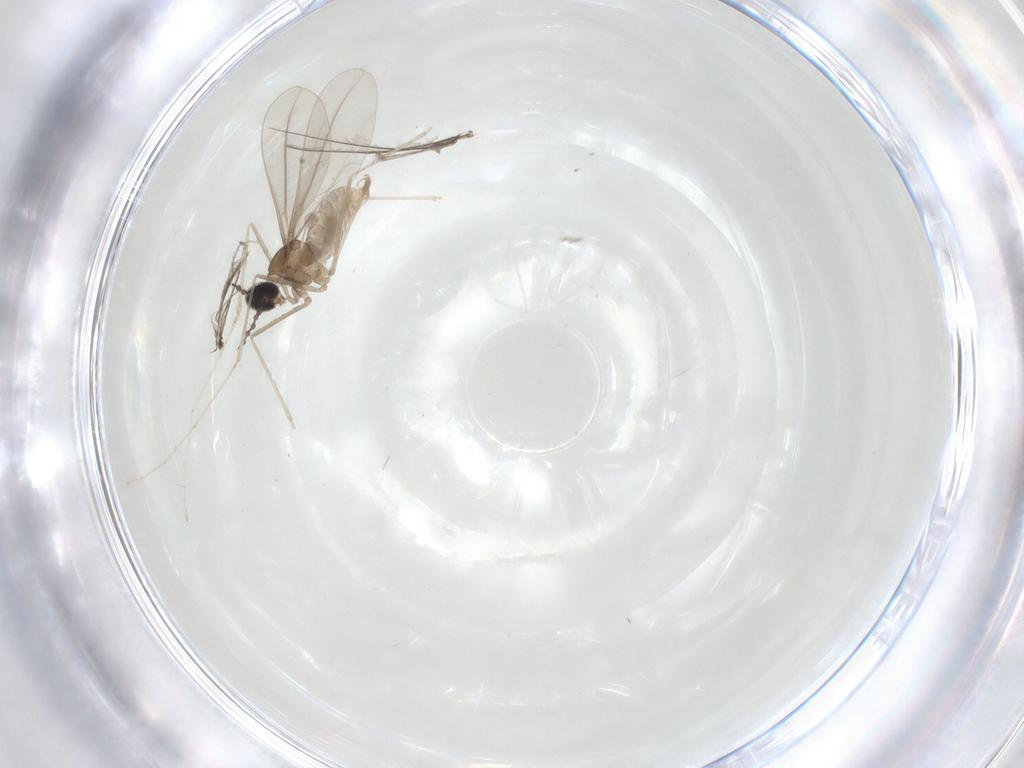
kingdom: Animalia
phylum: Arthropoda
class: Insecta
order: Diptera
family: Cecidomyiidae
